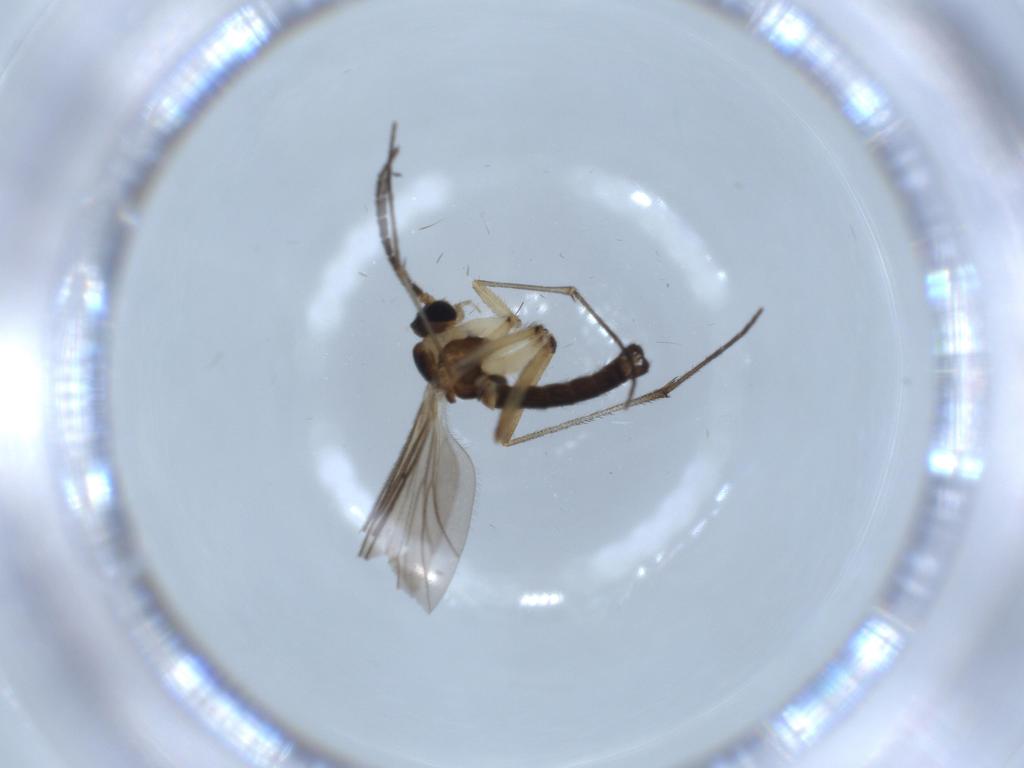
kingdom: Animalia
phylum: Arthropoda
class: Insecta
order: Diptera
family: Sciaridae
